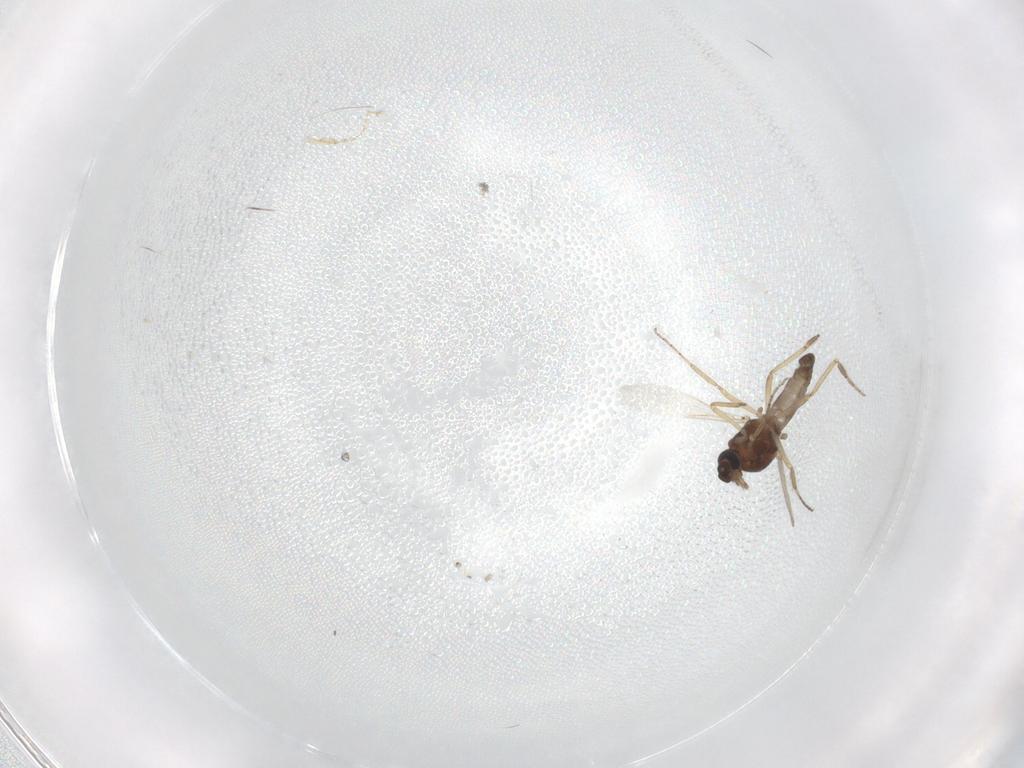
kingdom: Animalia
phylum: Arthropoda
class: Insecta
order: Diptera
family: Ceratopogonidae
